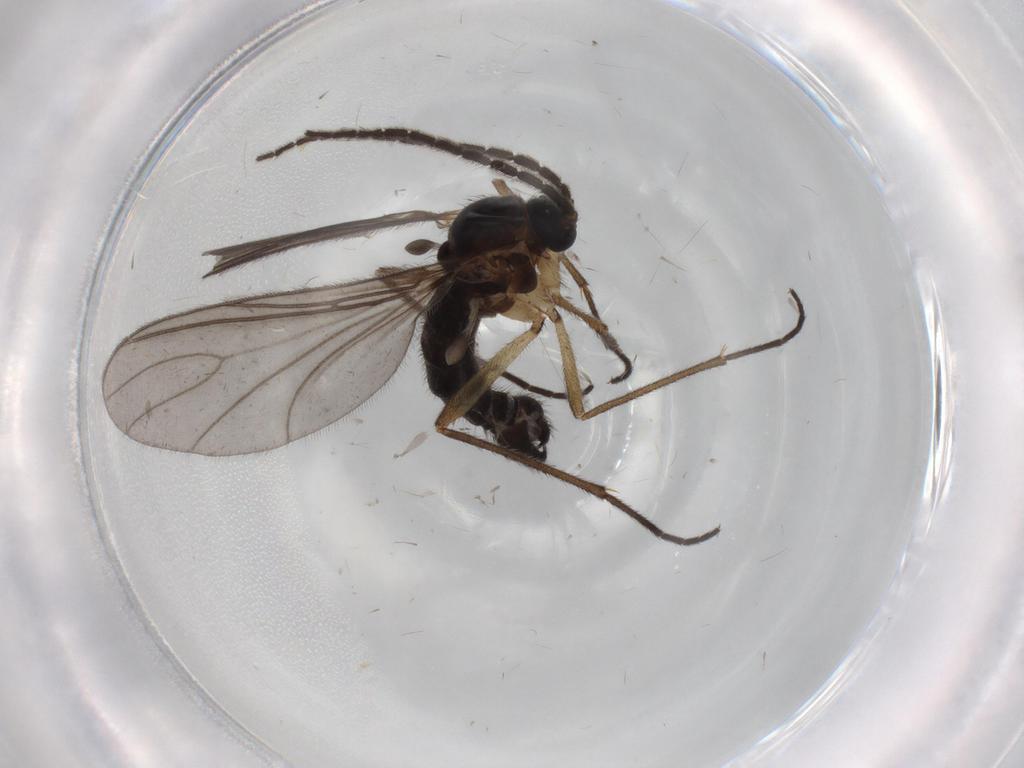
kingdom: Animalia
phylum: Arthropoda
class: Insecta
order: Diptera
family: Sciaridae
